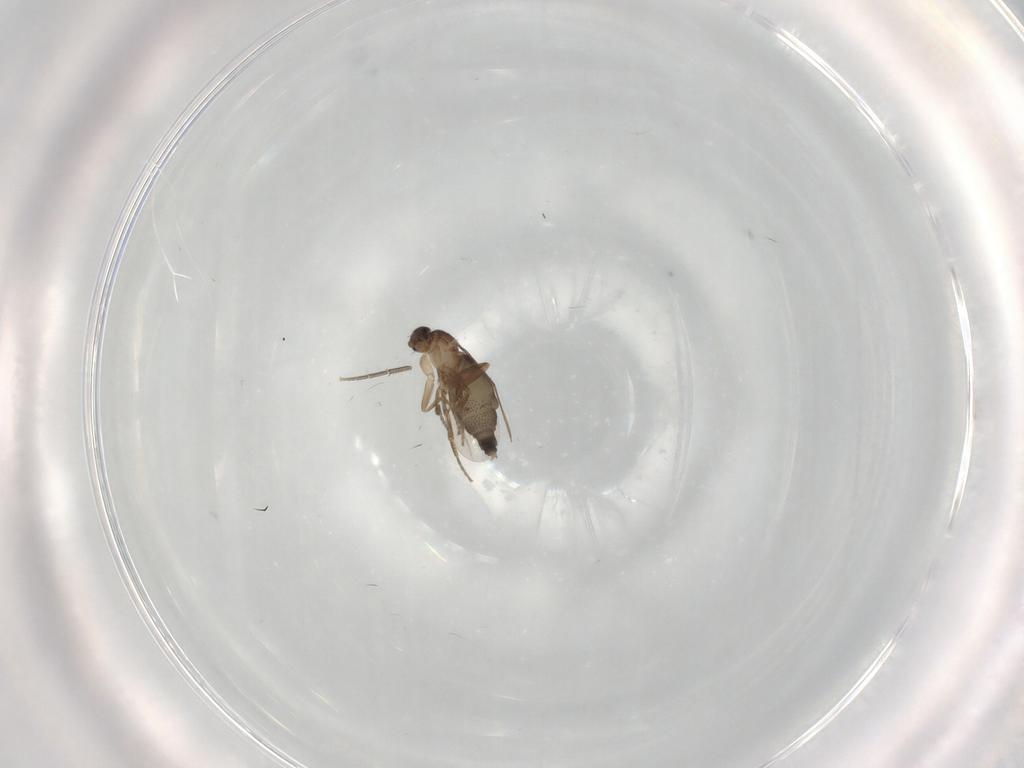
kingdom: Animalia
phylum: Arthropoda
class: Insecta
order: Diptera
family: Phoridae
